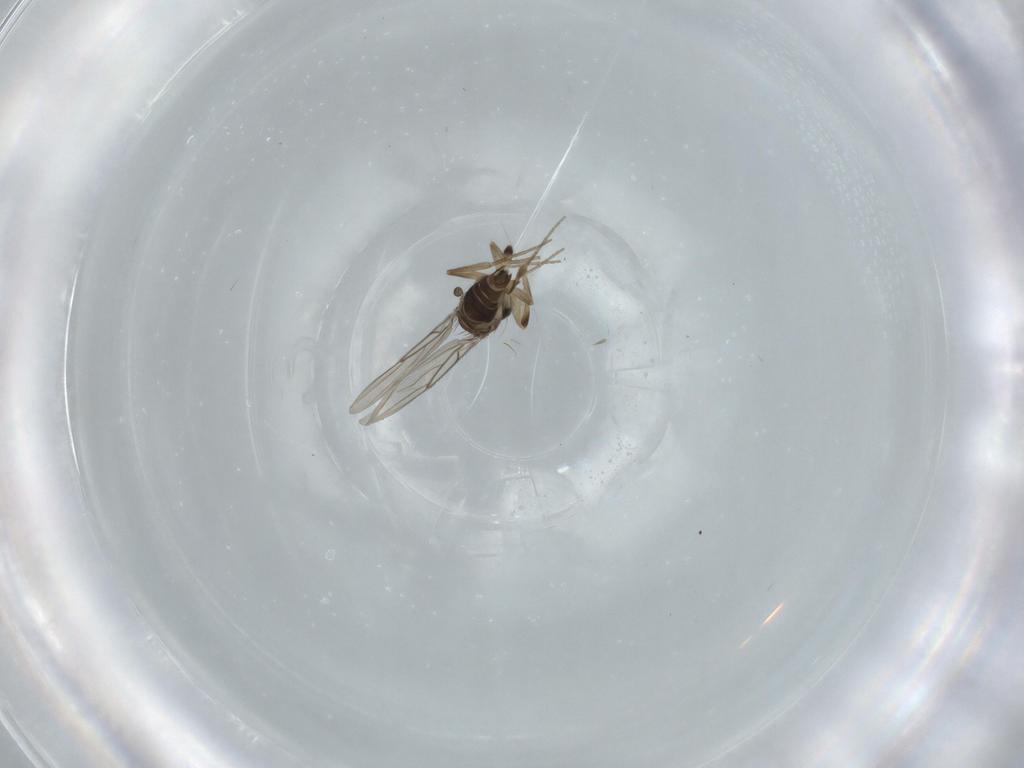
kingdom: Animalia
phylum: Arthropoda
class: Insecta
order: Diptera
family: Phoridae
